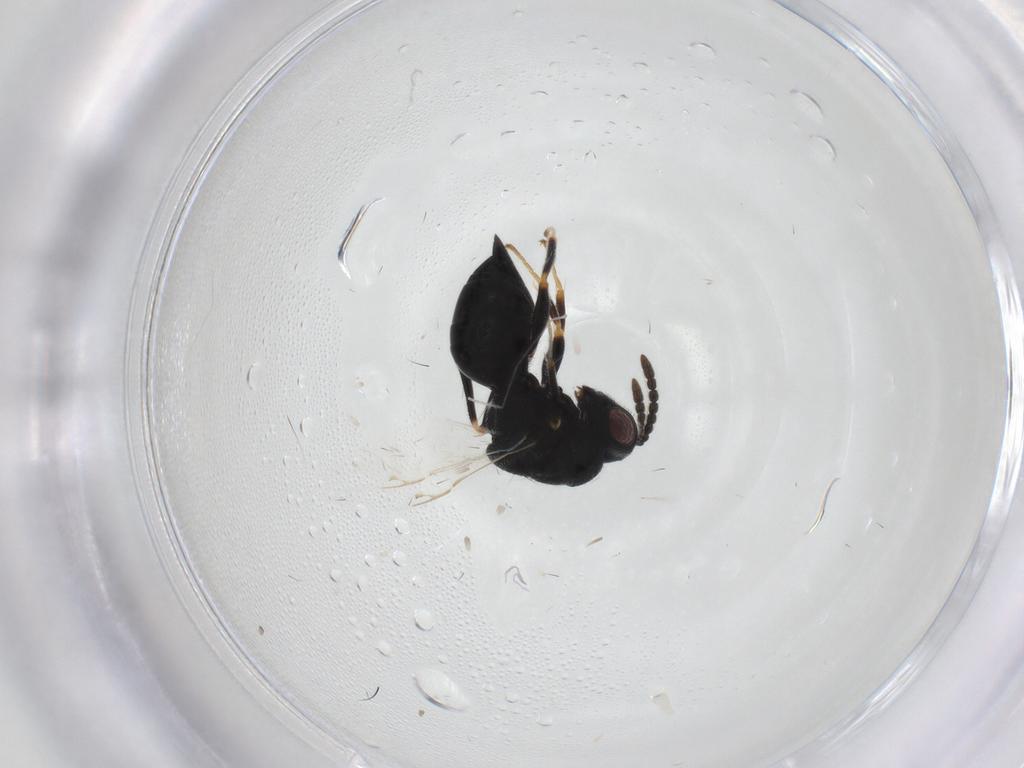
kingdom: Animalia
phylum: Arthropoda
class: Insecta
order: Hymenoptera
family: Eurytomidae
